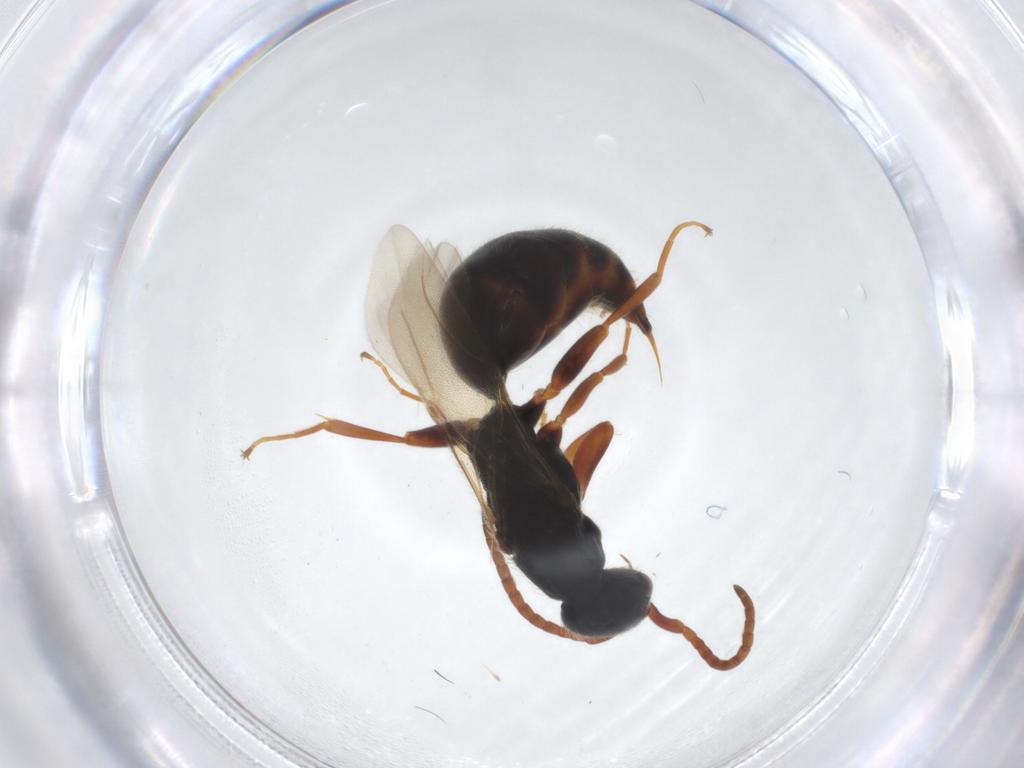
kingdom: Animalia
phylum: Arthropoda
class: Insecta
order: Hymenoptera
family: Bethylidae
